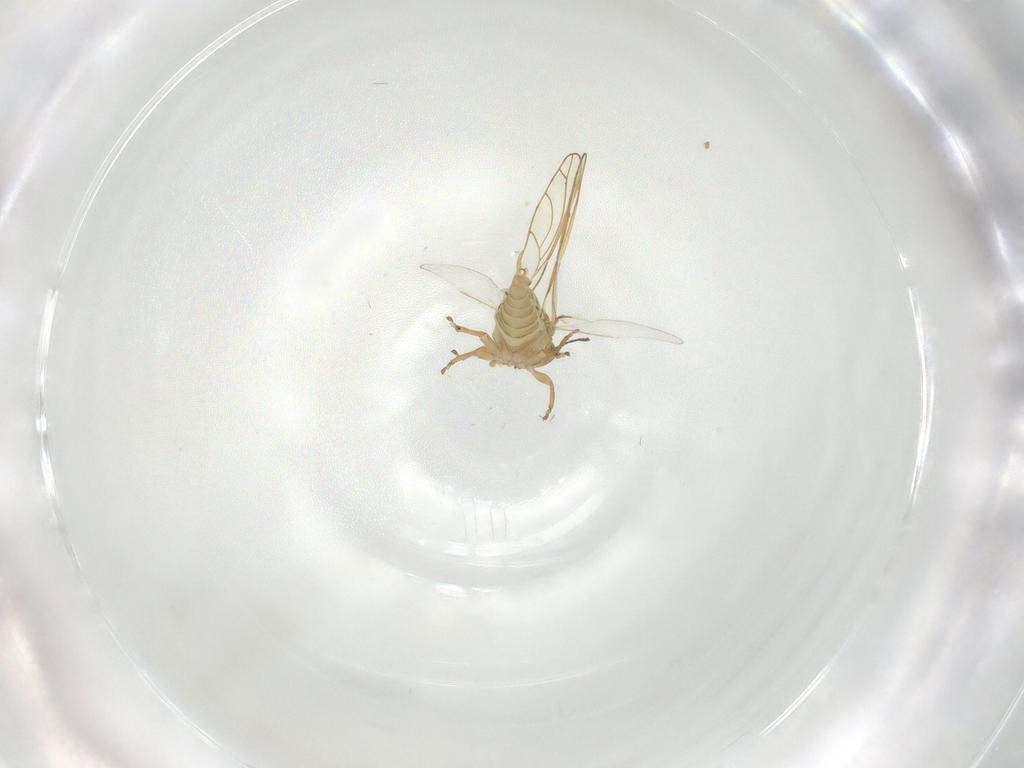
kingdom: Animalia
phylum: Arthropoda
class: Insecta
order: Hemiptera
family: Psylloidea_incertae_sedis
